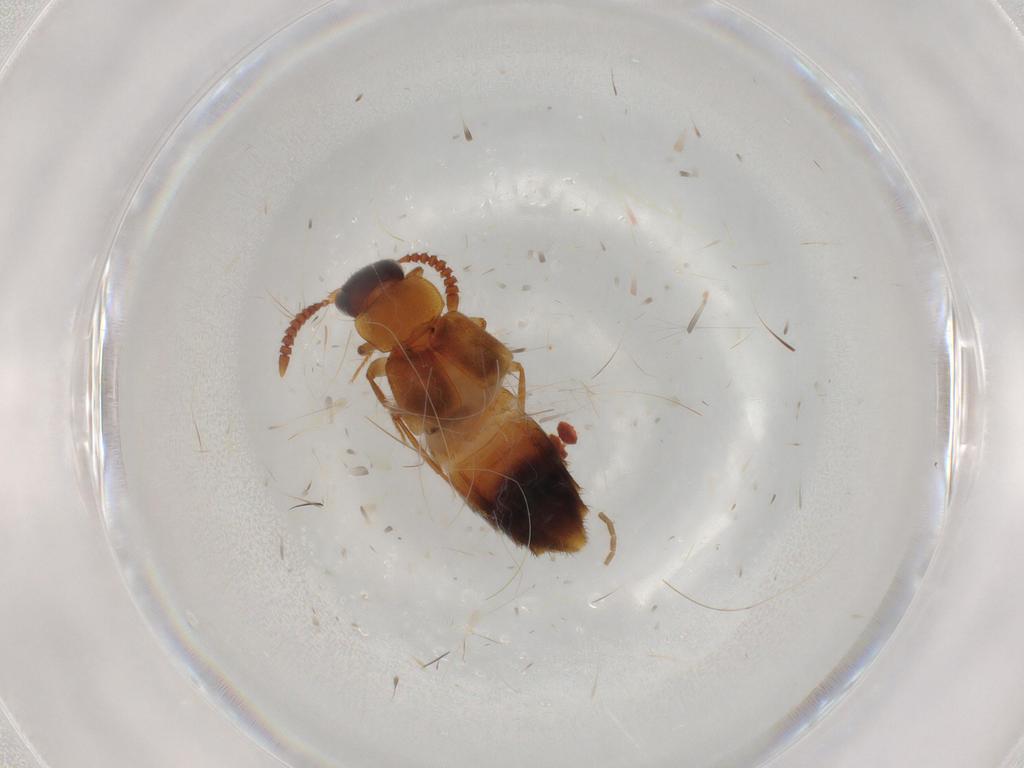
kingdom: Animalia
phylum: Arthropoda
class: Insecta
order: Coleoptera
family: Staphylinidae
